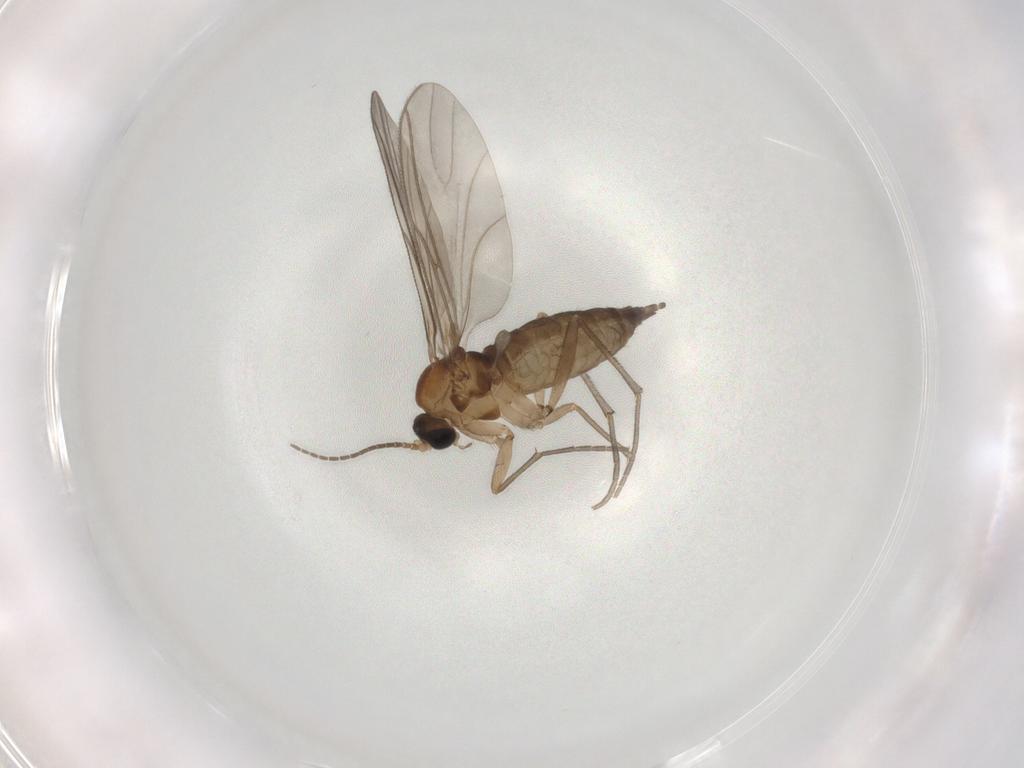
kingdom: Animalia
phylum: Arthropoda
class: Insecta
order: Diptera
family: Sciaridae
